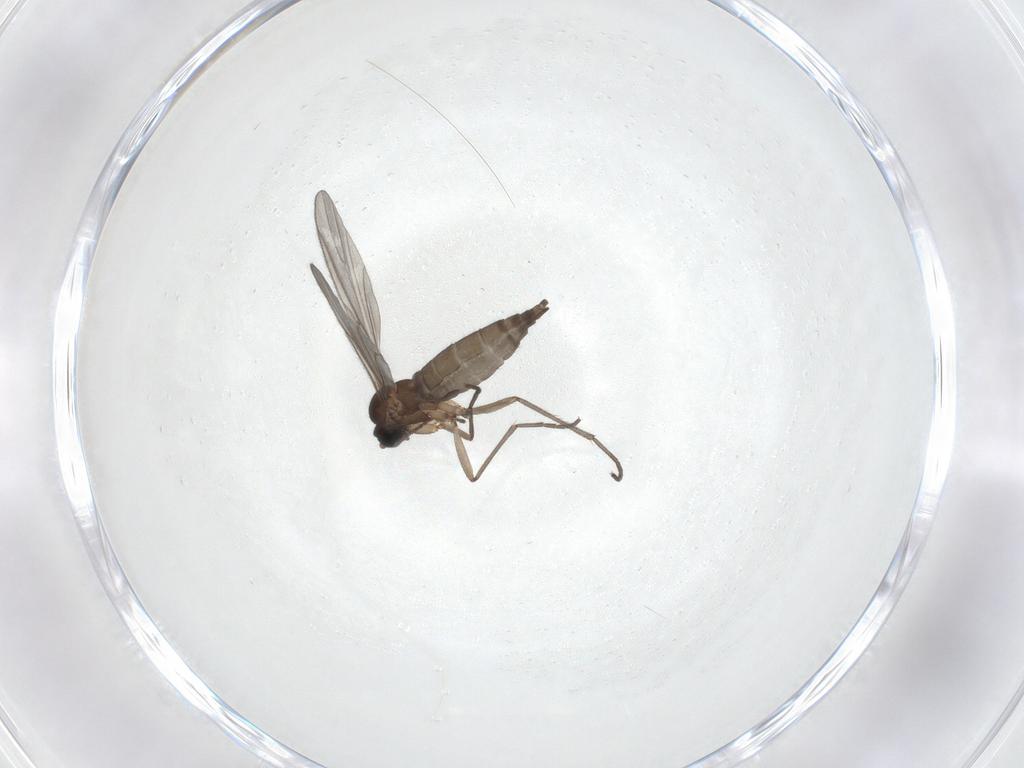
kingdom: Animalia
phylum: Arthropoda
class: Insecta
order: Diptera
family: Sciaridae
